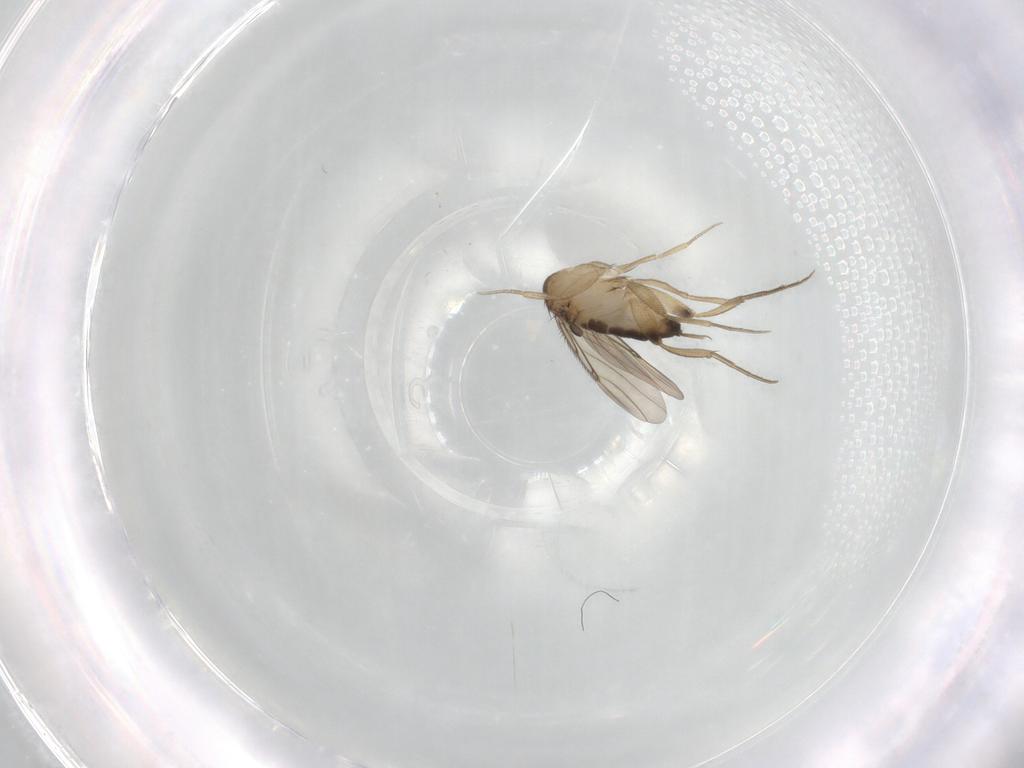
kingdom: Animalia
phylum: Arthropoda
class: Insecta
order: Diptera
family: Phoridae
